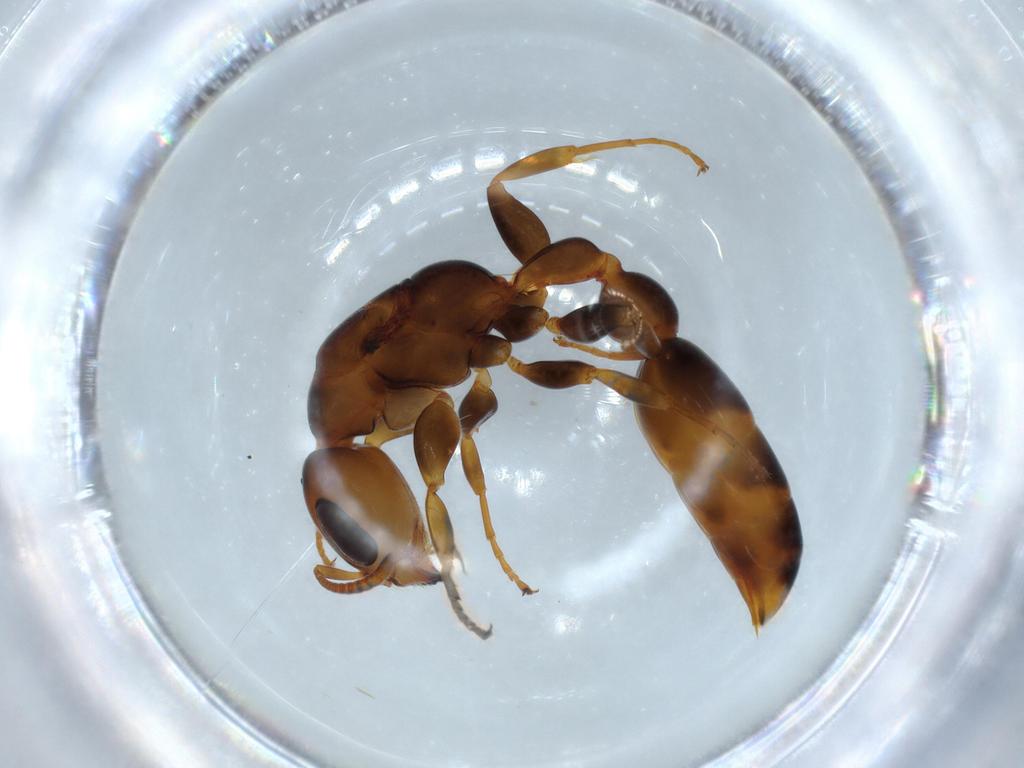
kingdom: Animalia
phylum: Arthropoda
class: Insecta
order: Hymenoptera
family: Formicidae
